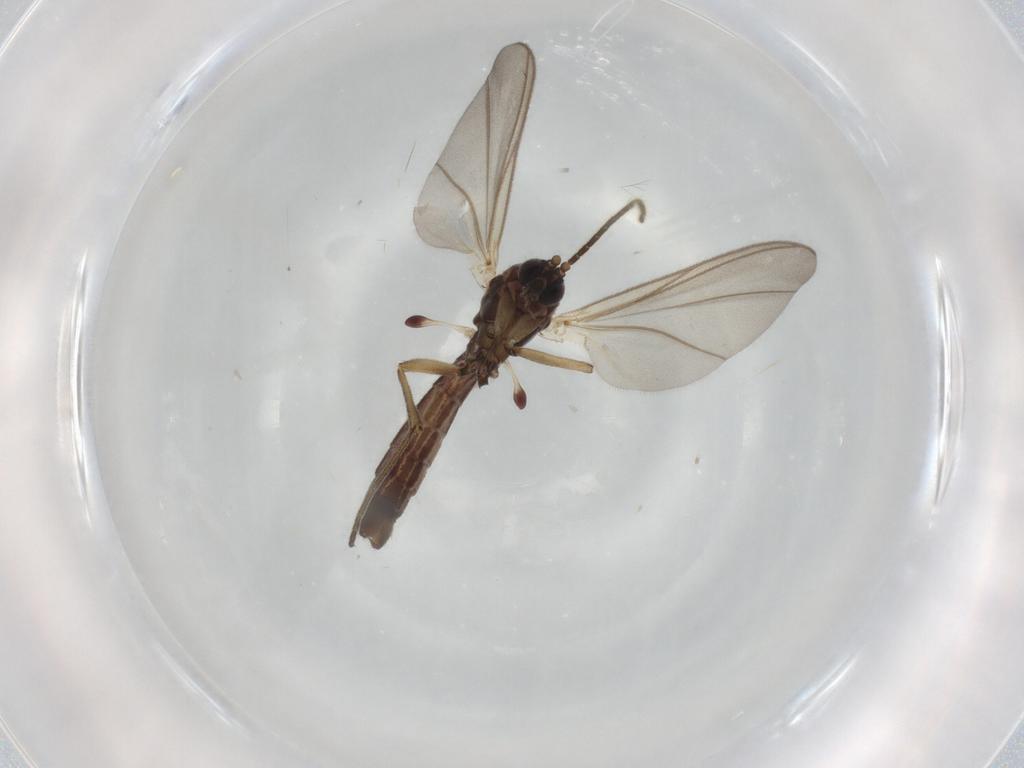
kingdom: Animalia
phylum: Arthropoda
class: Insecta
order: Diptera
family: Mycetophilidae
